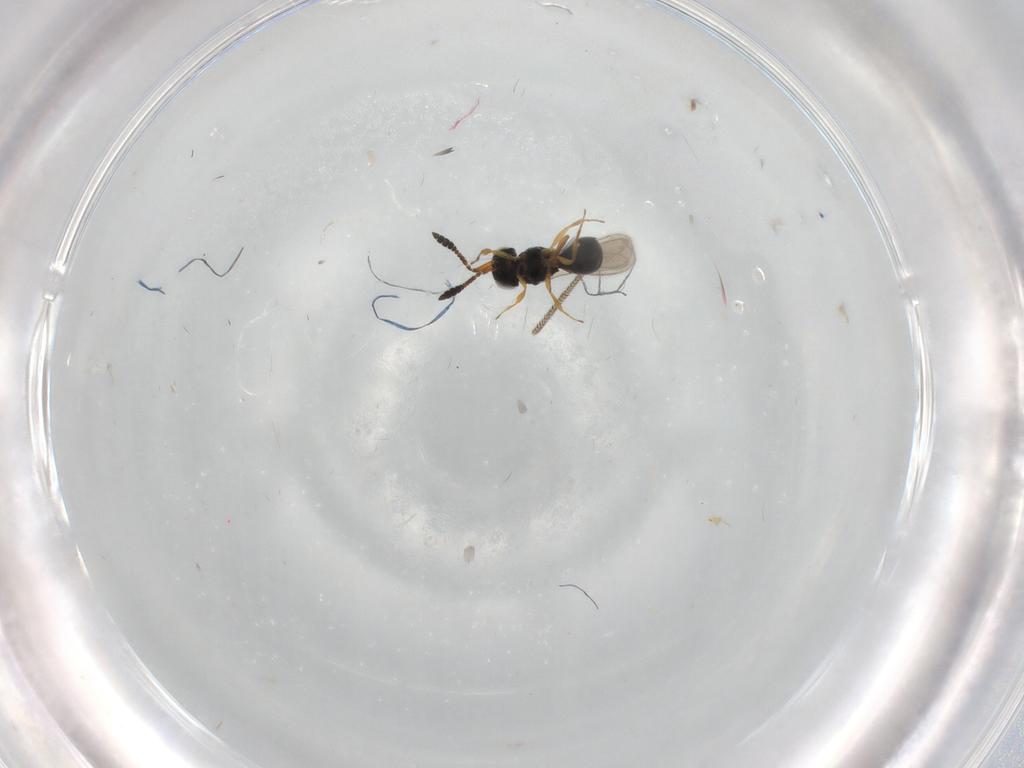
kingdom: Animalia
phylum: Arthropoda
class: Insecta
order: Hymenoptera
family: Scelionidae
